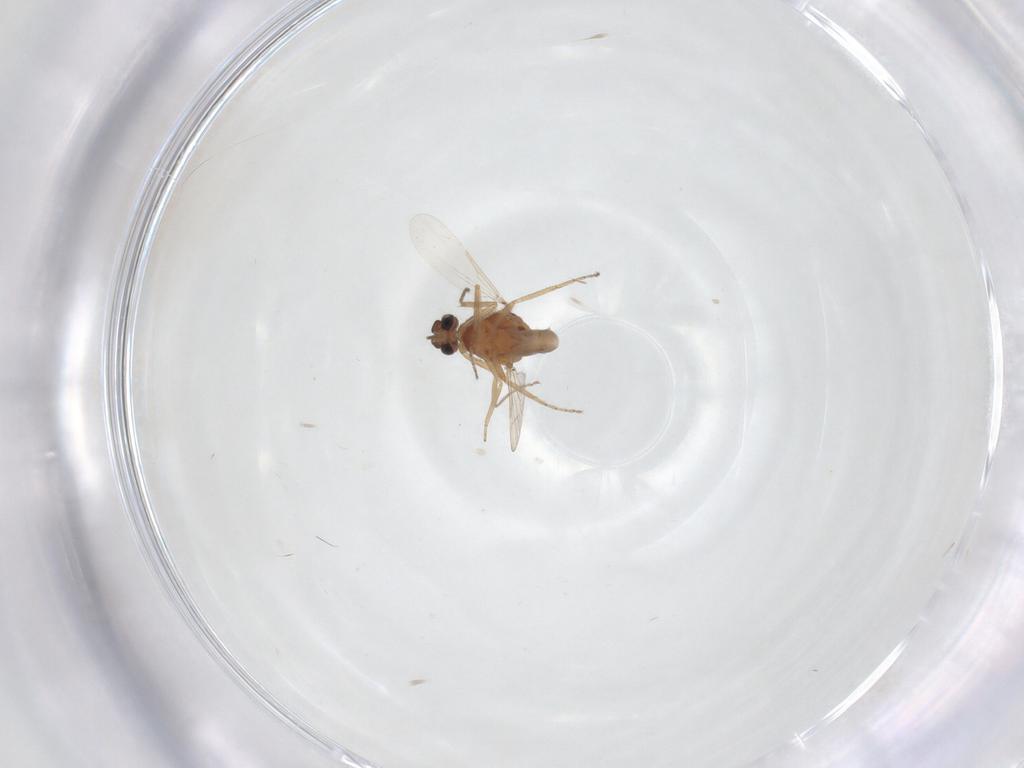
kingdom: Animalia
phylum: Arthropoda
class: Insecta
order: Diptera
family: Ceratopogonidae
